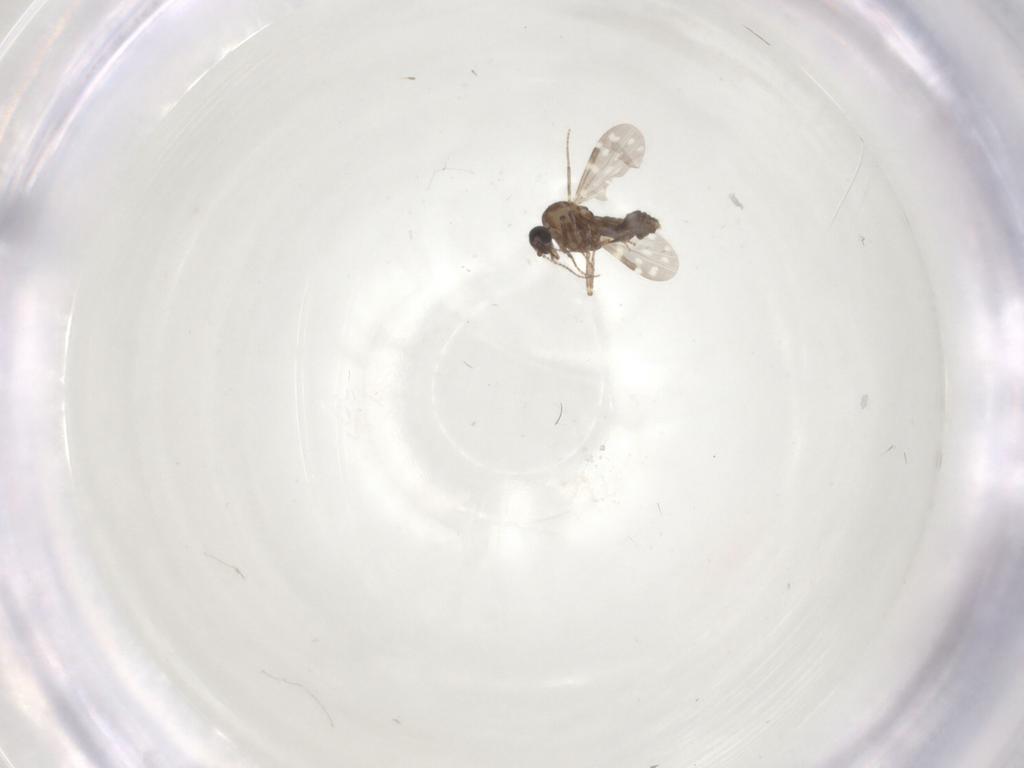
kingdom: Animalia
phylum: Arthropoda
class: Insecta
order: Diptera
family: Ceratopogonidae
